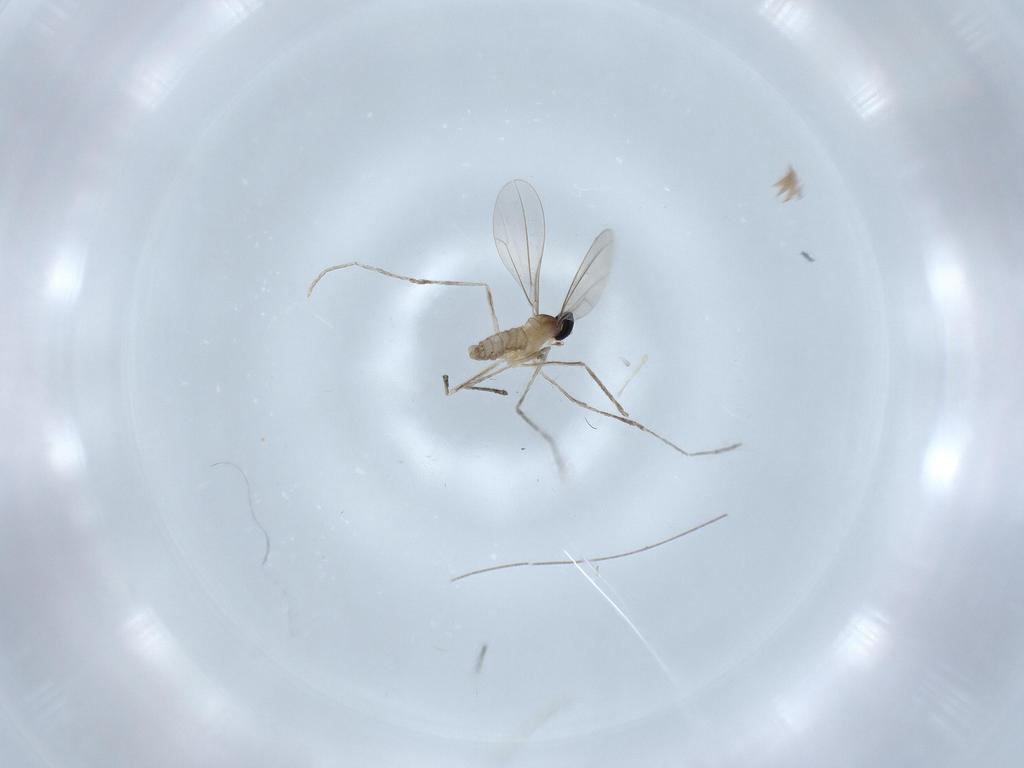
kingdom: Animalia
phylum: Arthropoda
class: Insecta
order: Diptera
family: Cecidomyiidae
